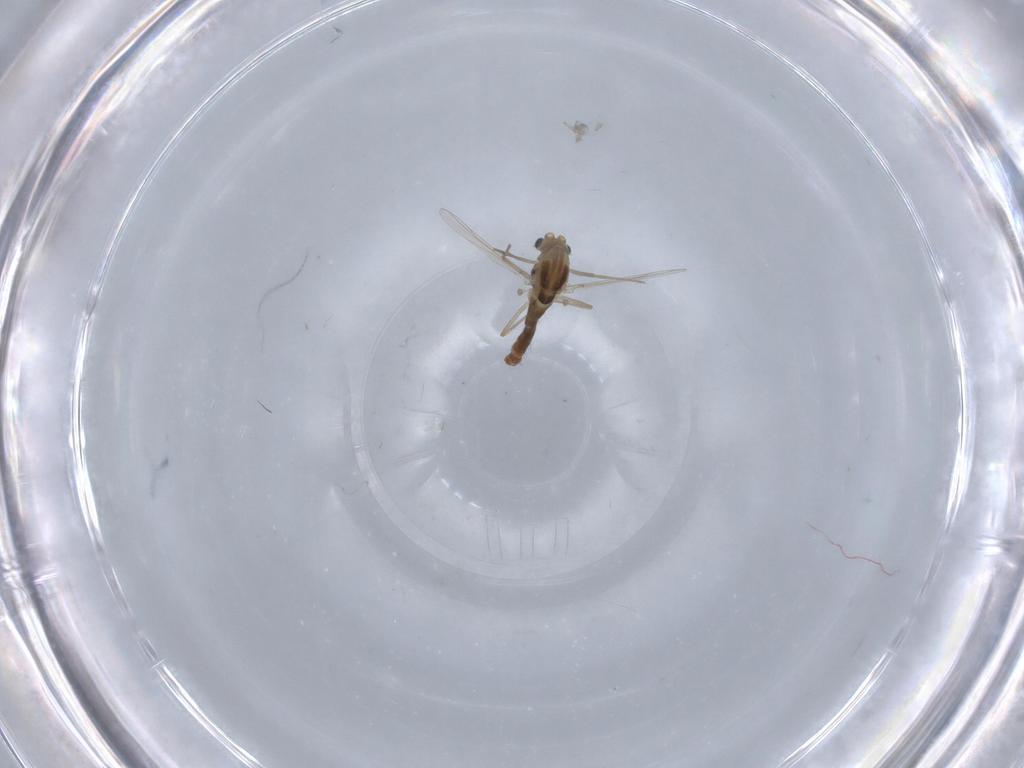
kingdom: Animalia
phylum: Arthropoda
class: Insecta
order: Diptera
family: Chironomidae
